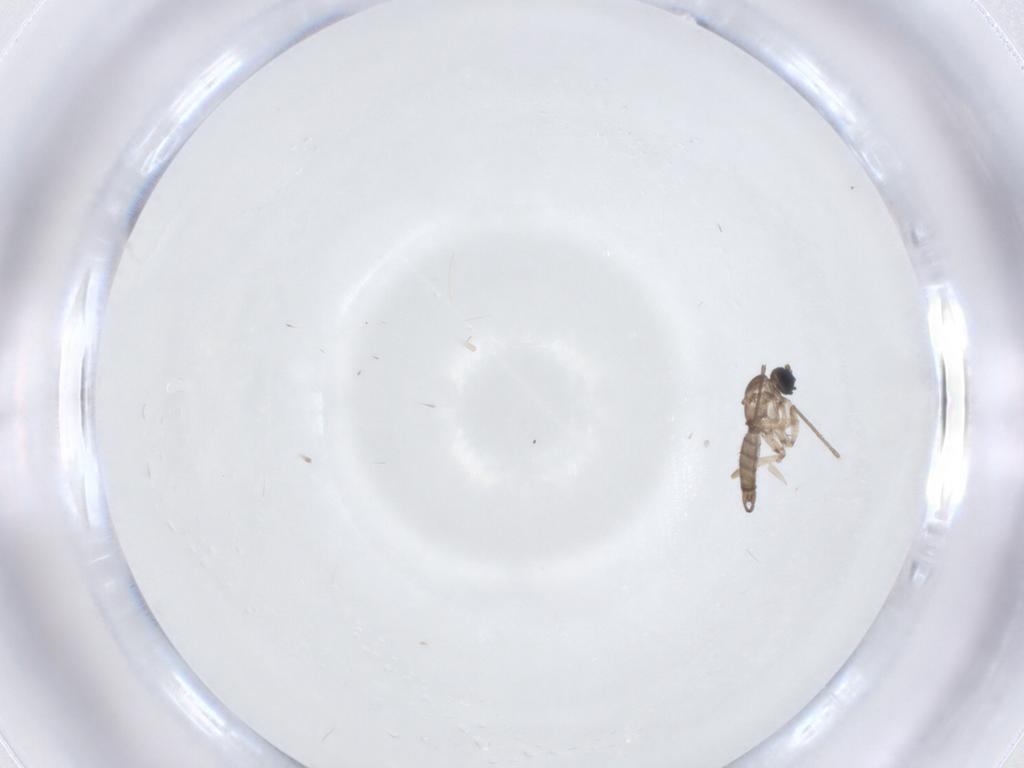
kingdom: Animalia
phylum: Arthropoda
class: Insecta
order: Diptera
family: Sciaridae
